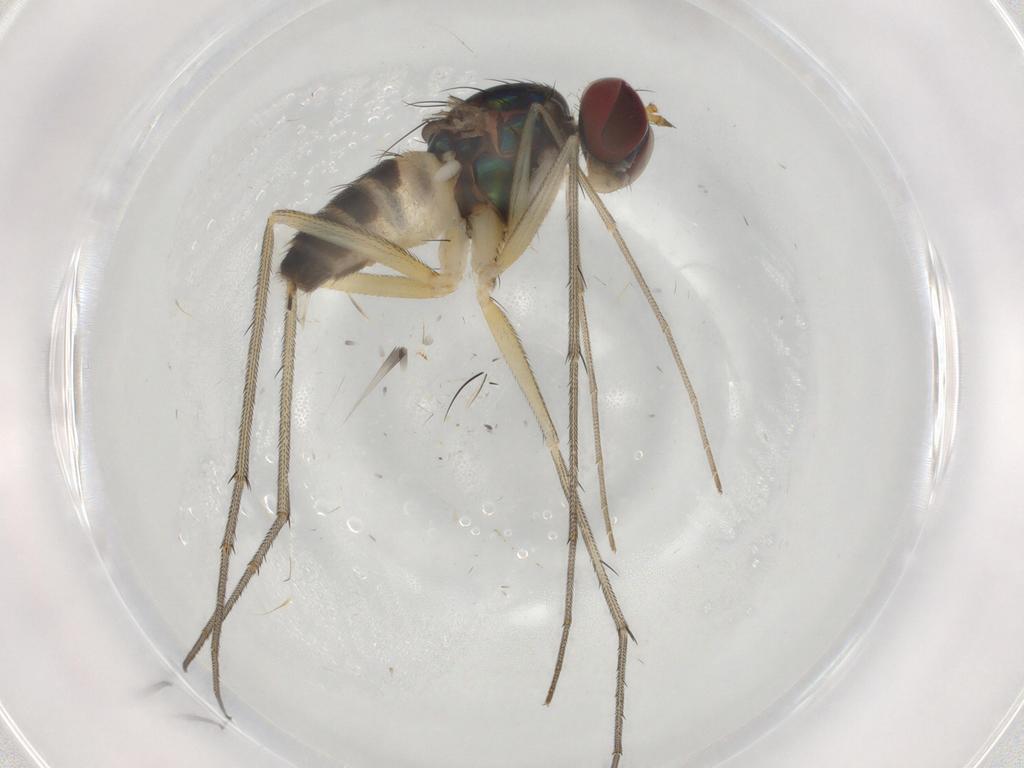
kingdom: Animalia
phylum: Arthropoda
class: Insecta
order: Diptera
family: Dolichopodidae
